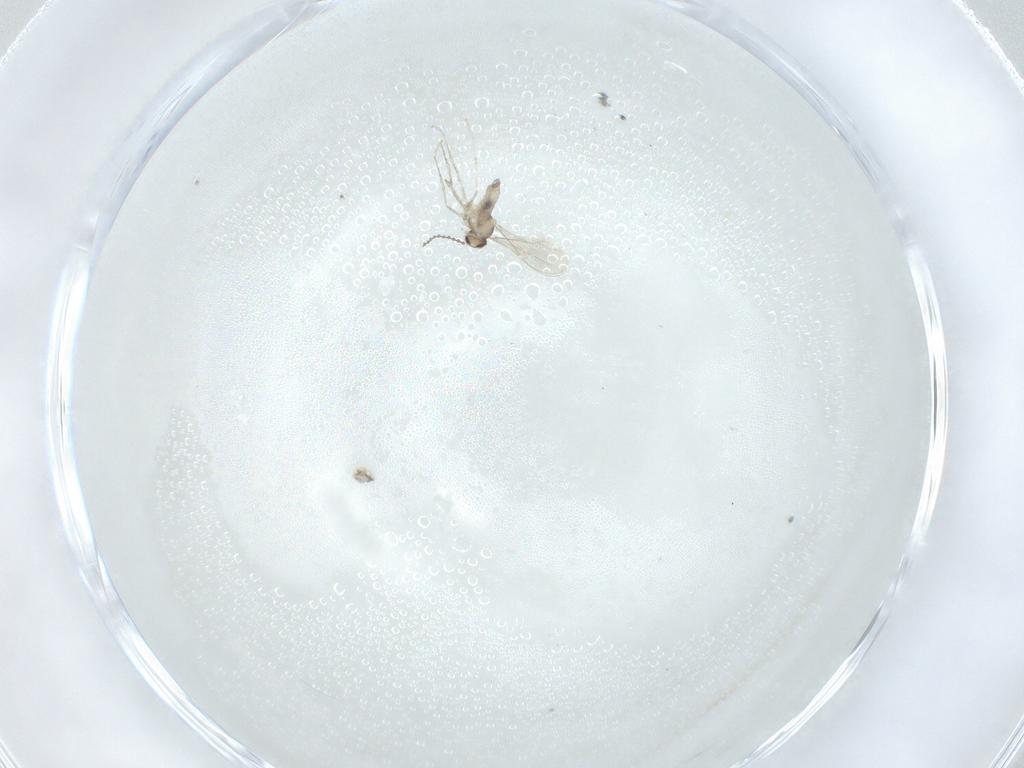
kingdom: Animalia
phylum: Arthropoda
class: Insecta
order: Diptera
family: Cecidomyiidae
